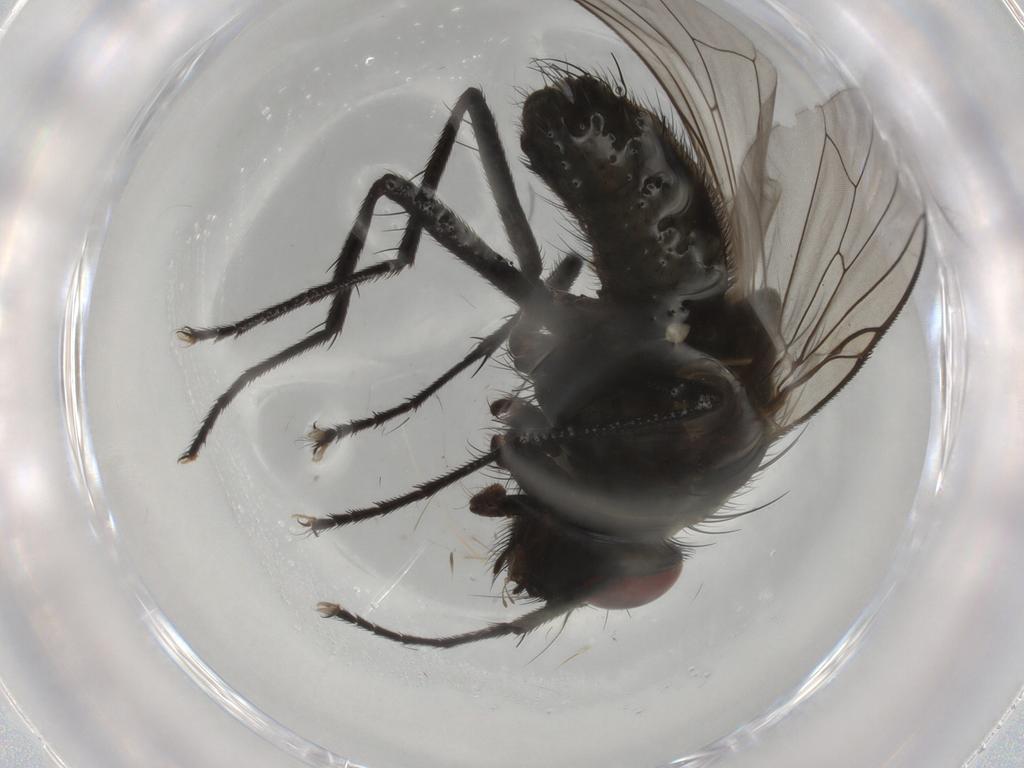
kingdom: Animalia
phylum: Arthropoda
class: Insecta
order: Diptera
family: Muscidae
